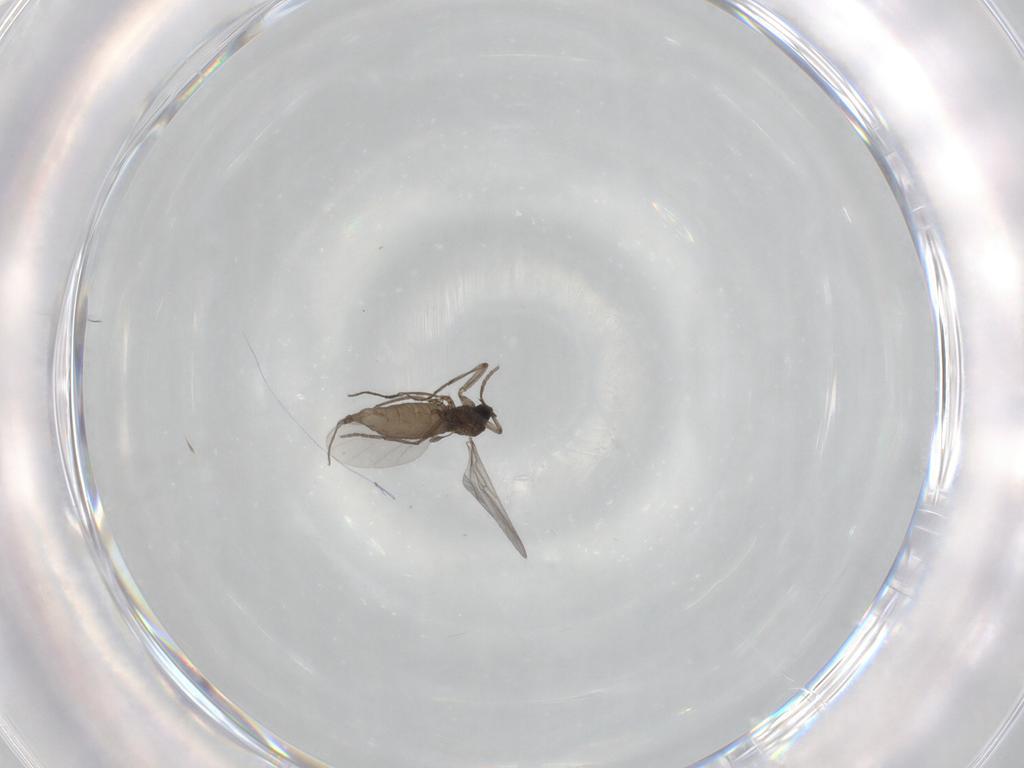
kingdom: Animalia
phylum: Arthropoda
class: Insecta
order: Diptera
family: Sciaridae
